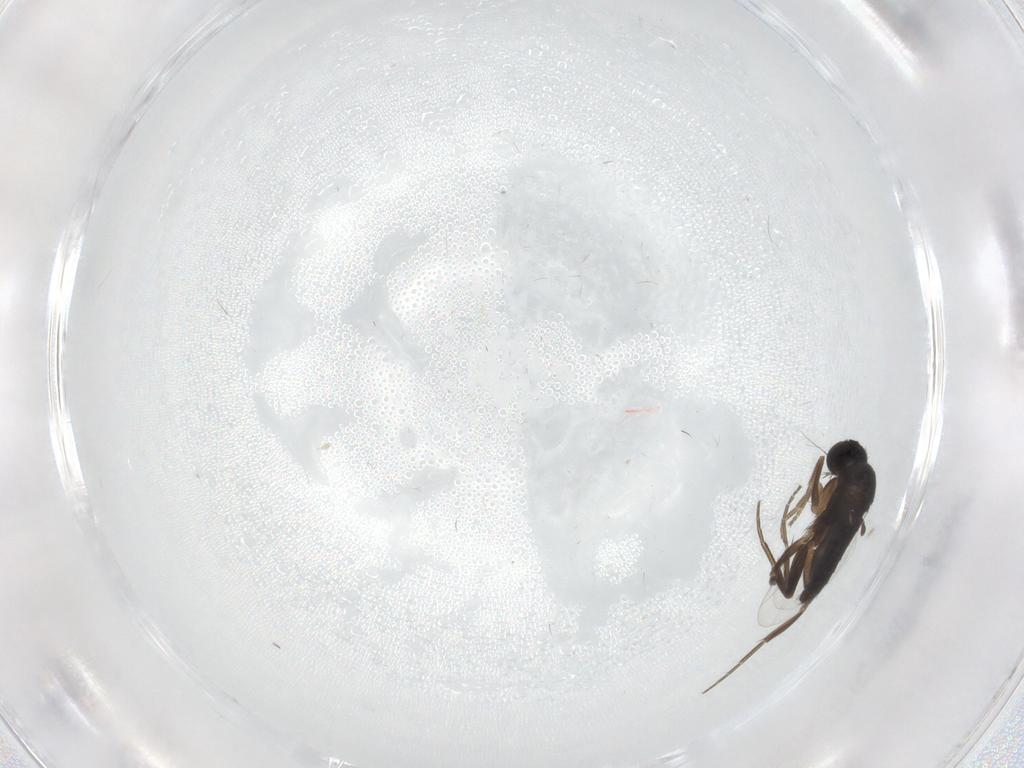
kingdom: Animalia
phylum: Arthropoda
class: Insecta
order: Diptera
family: Phoridae
